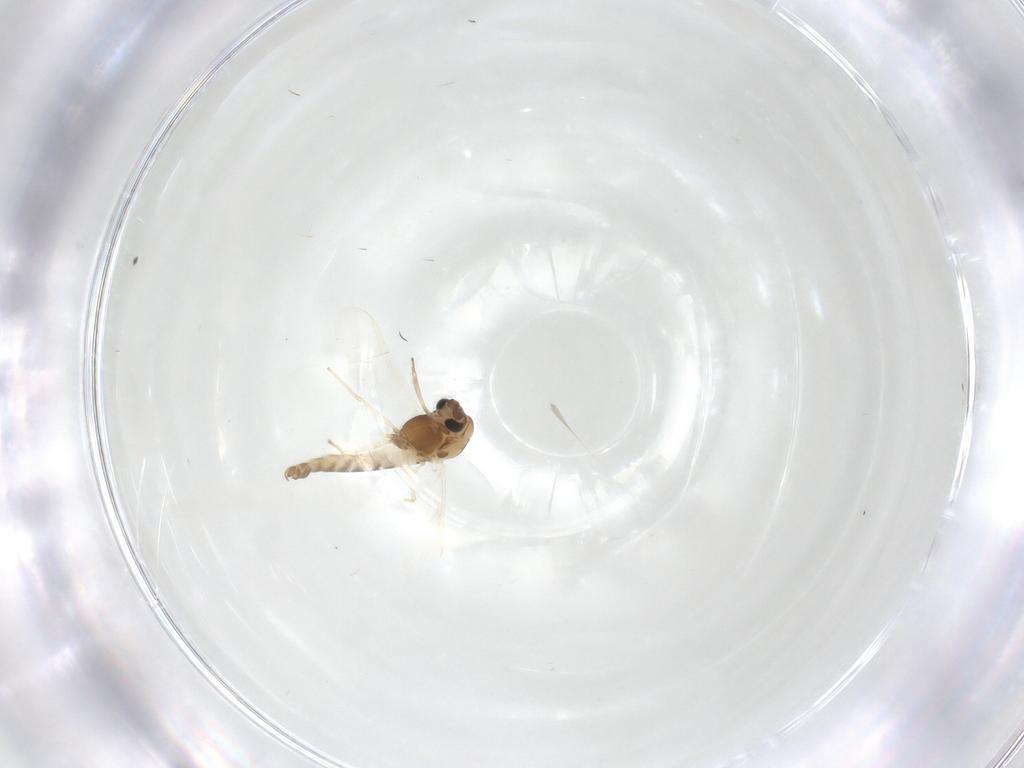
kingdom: Animalia
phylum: Arthropoda
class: Insecta
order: Diptera
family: Chironomidae
